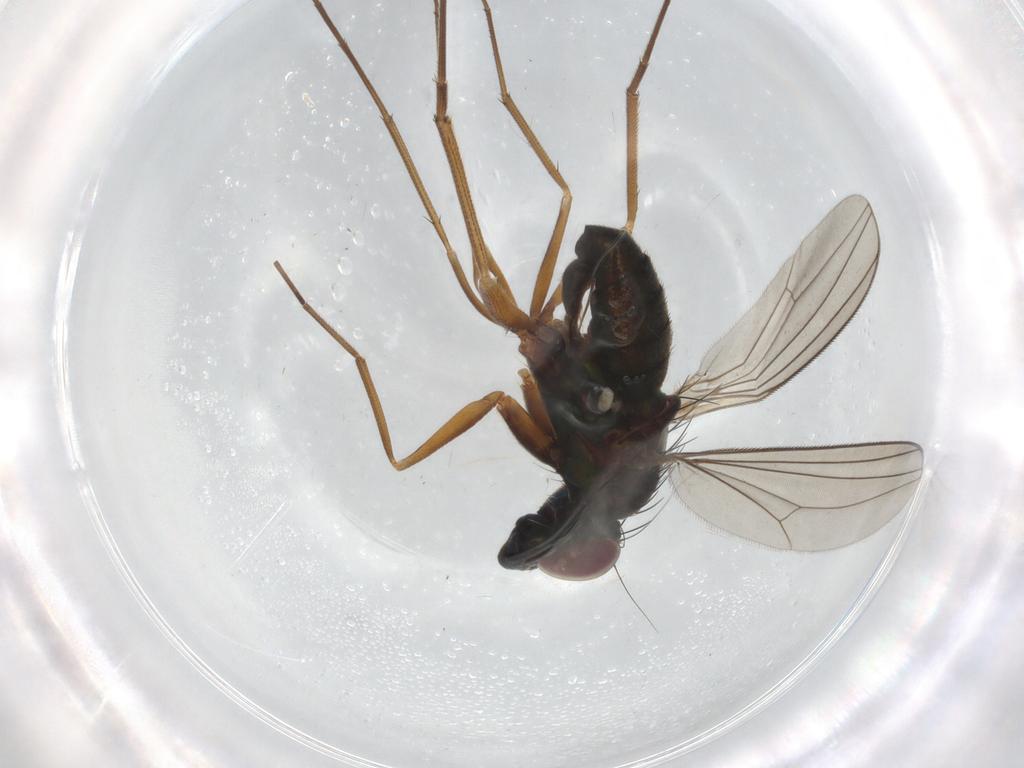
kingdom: Animalia
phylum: Arthropoda
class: Insecta
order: Diptera
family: Dolichopodidae
